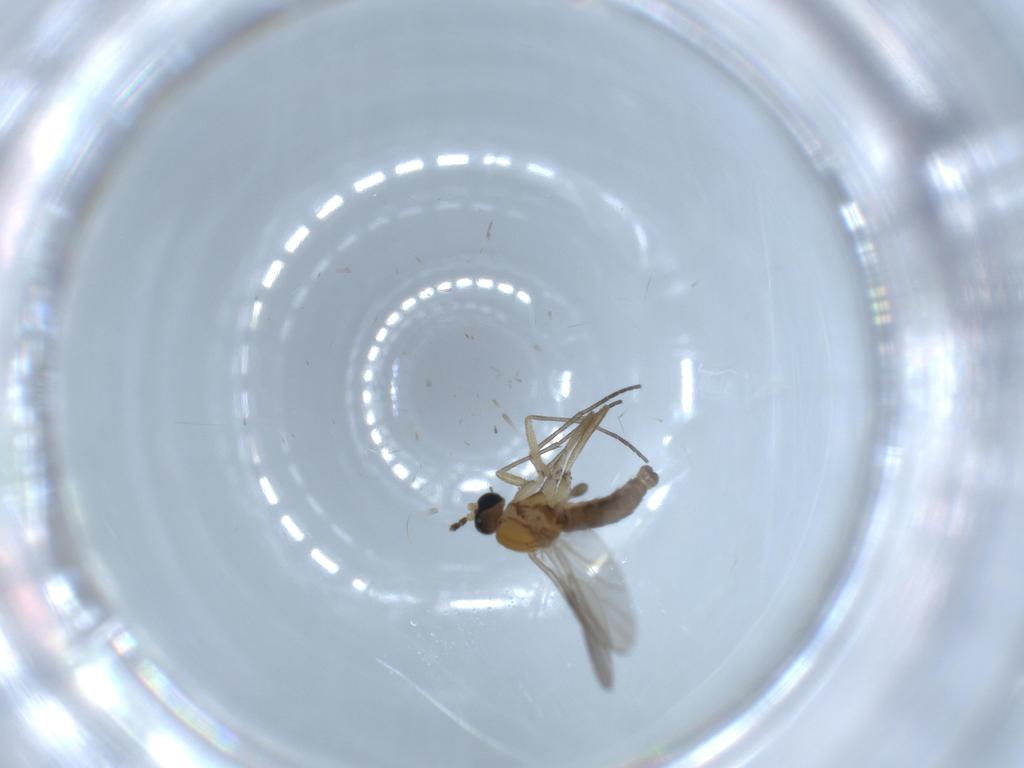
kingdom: Animalia
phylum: Arthropoda
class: Insecta
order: Diptera
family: Sciaridae
